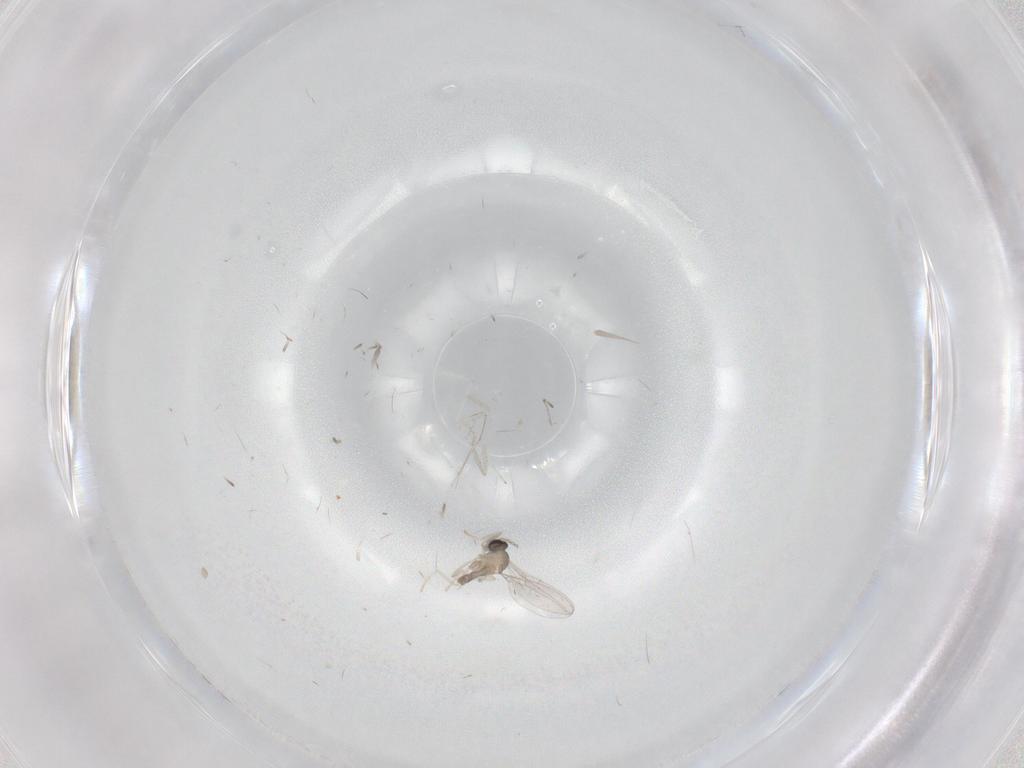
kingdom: Animalia
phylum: Arthropoda
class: Insecta
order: Diptera
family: Cecidomyiidae
